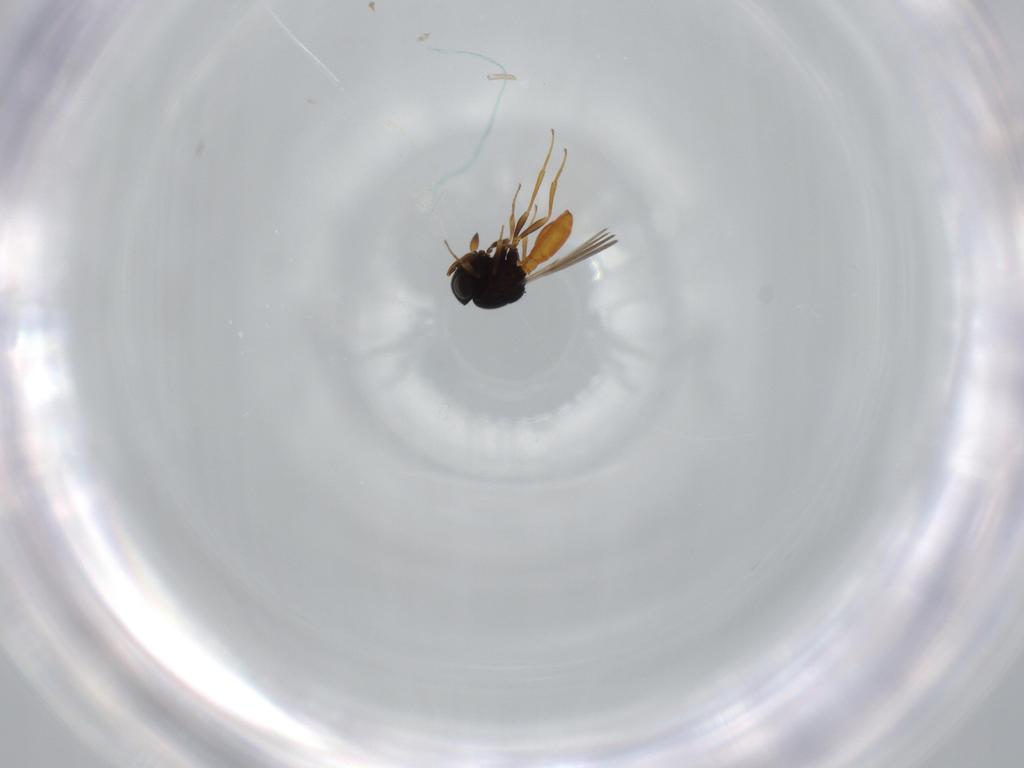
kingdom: Animalia
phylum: Arthropoda
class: Insecta
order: Hymenoptera
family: Scelionidae
